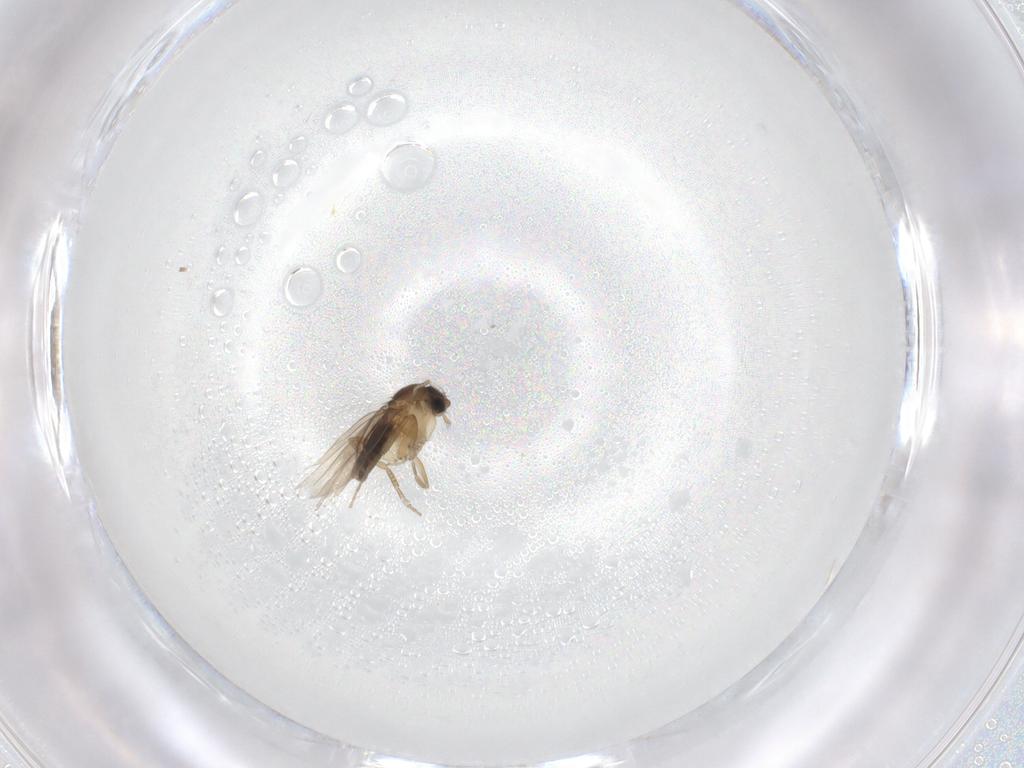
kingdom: Animalia
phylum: Arthropoda
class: Insecta
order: Diptera
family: Phoridae
